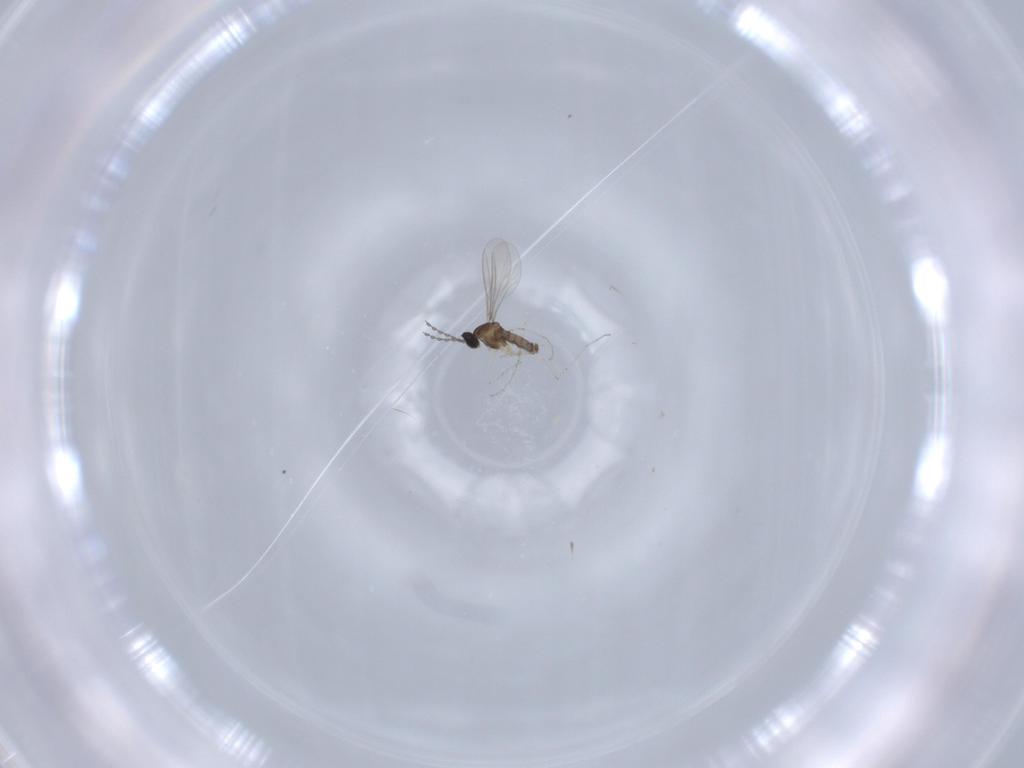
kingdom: Animalia
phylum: Arthropoda
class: Insecta
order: Diptera
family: Cecidomyiidae
